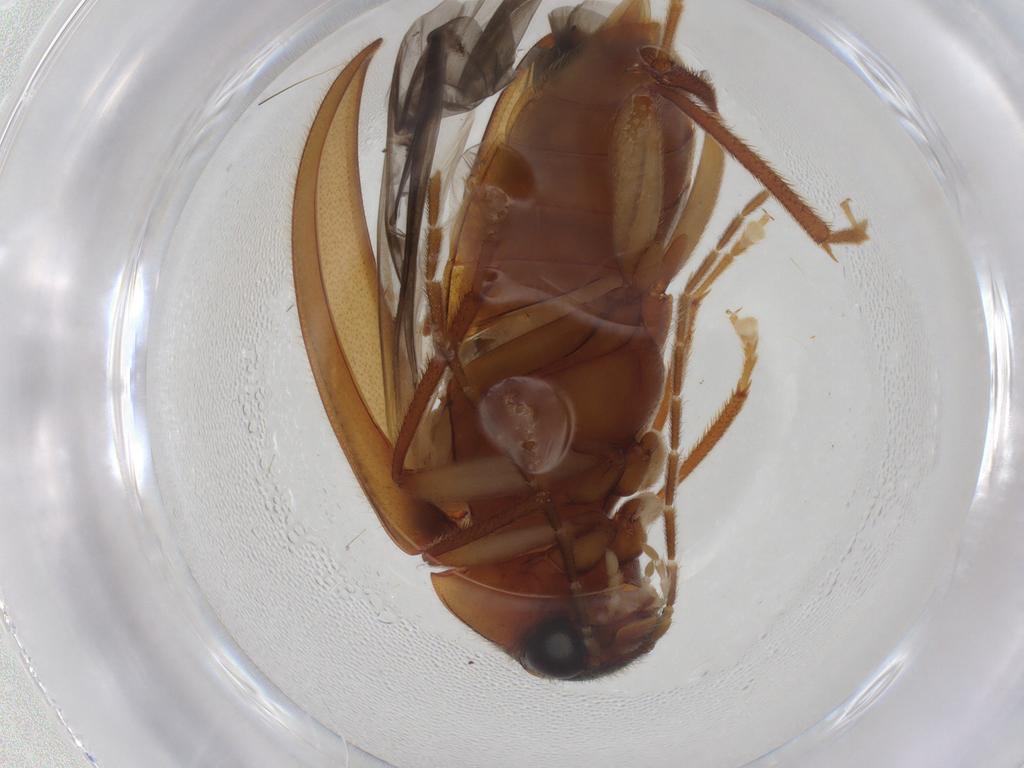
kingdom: Animalia
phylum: Arthropoda
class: Insecta
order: Coleoptera
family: Ptilodactylidae
